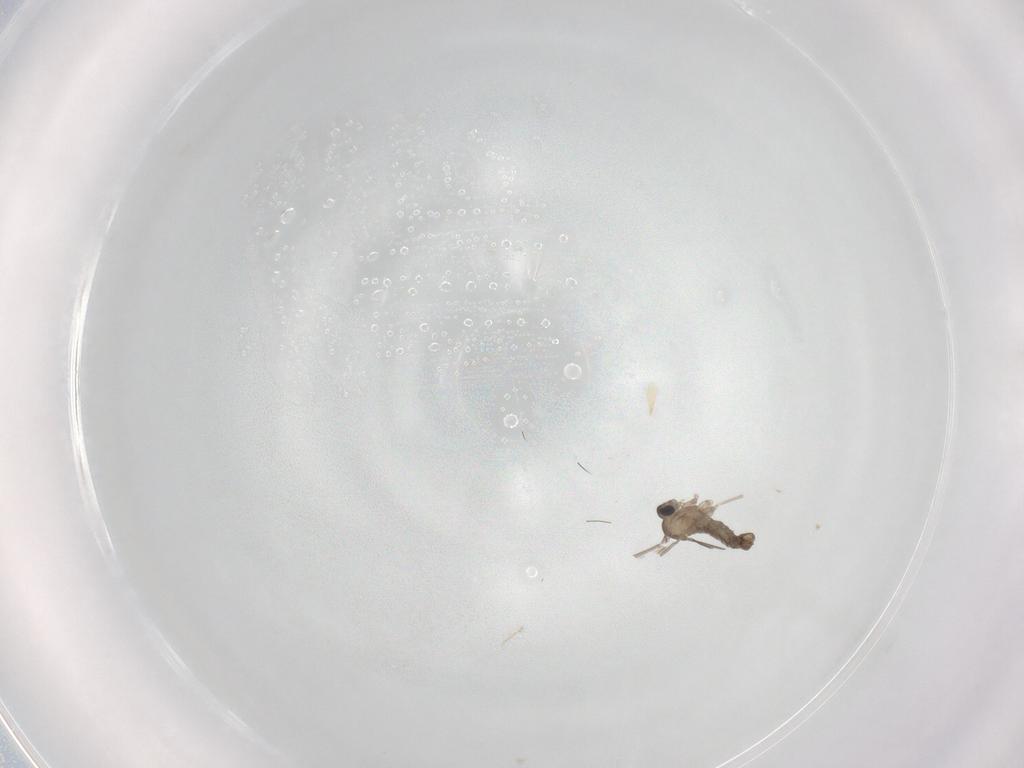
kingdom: Animalia
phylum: Arthropoda
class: Insecta
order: Diptera
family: Cecidomyiidae
